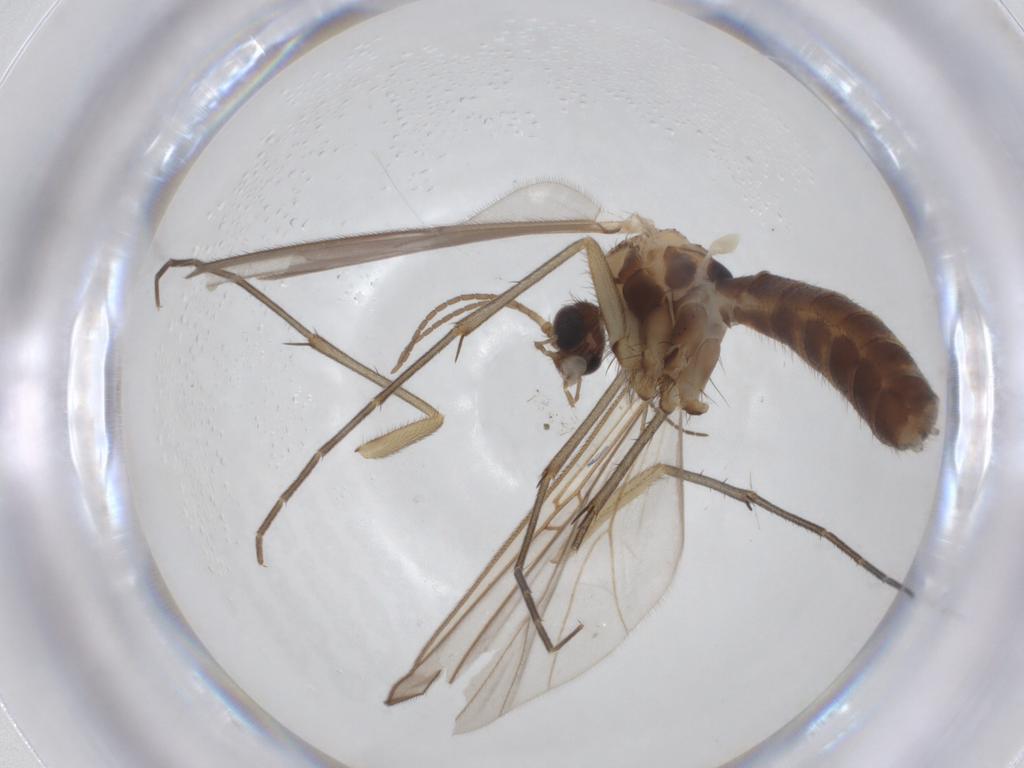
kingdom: Animalia
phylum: Arthropoda
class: Insecta
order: Diptera
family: Mycetophilidae
